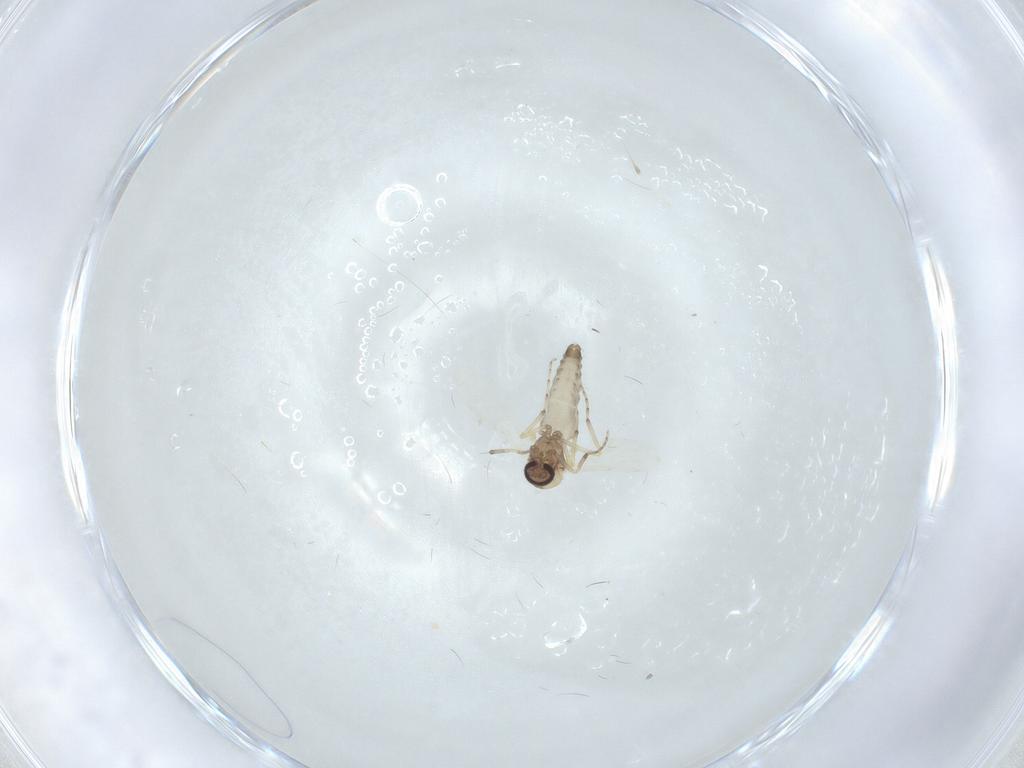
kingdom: Animalia
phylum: Arthropoda
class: Insecta
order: Diptera
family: Ceratopogonidae
